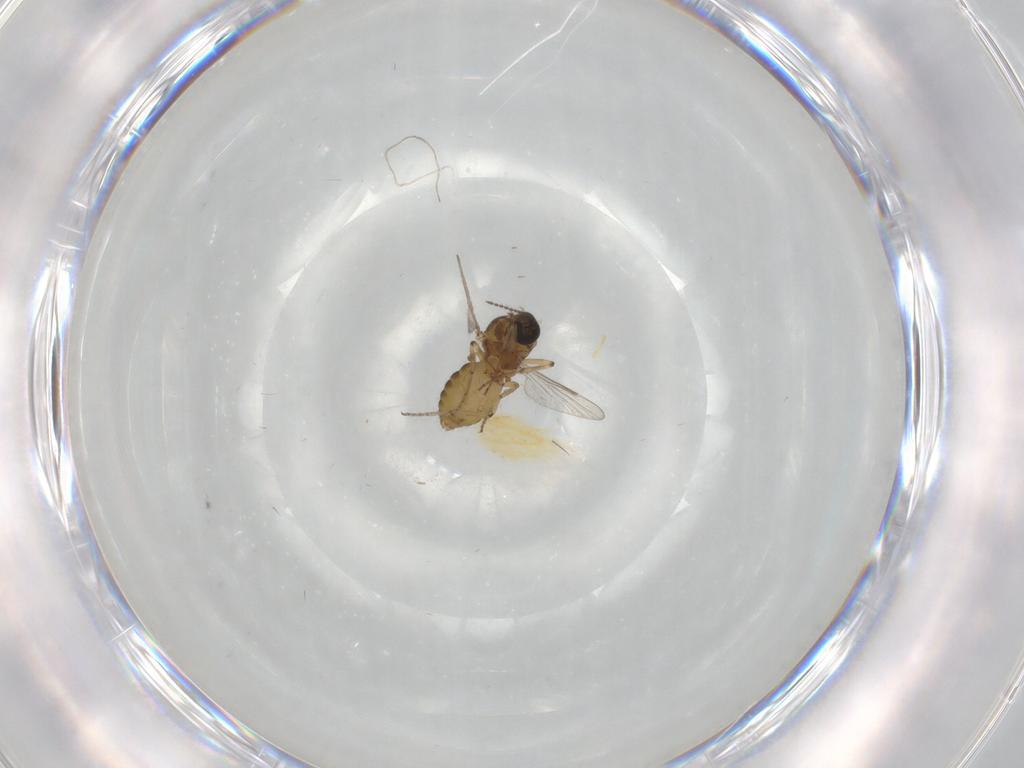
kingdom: Animalia
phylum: Arthropoda
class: Insecta
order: Diptera
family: Ceratopogonidae
